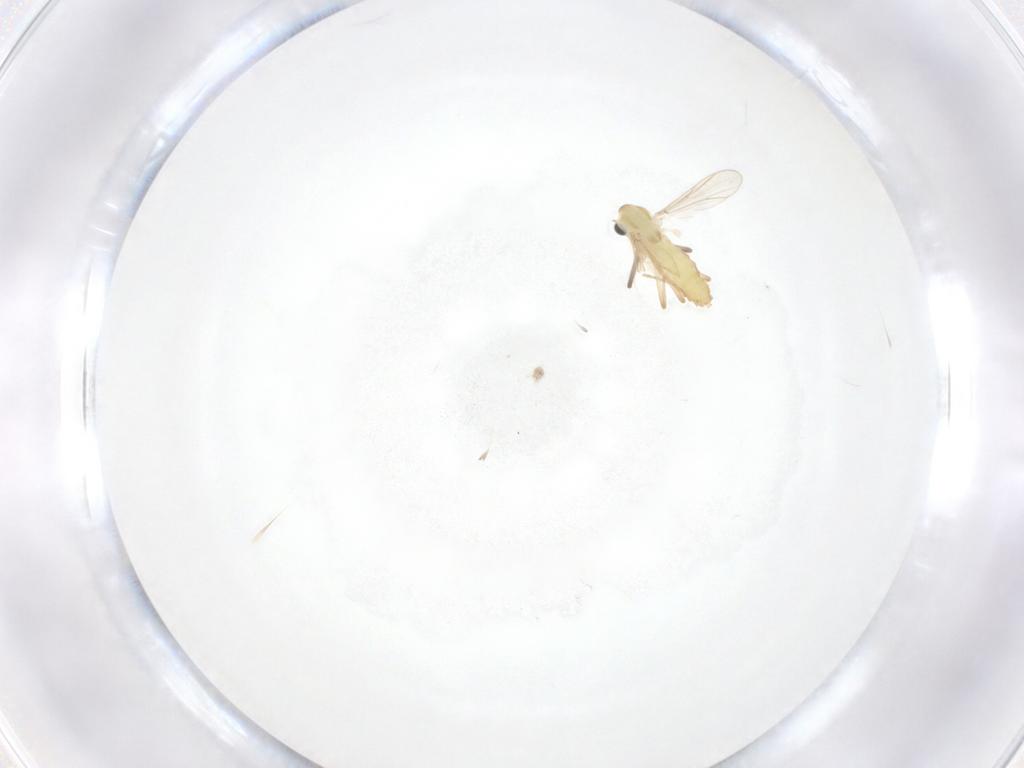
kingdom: Animalia
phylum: Arthropoda
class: Insecta
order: Diptera
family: Chironomidae
